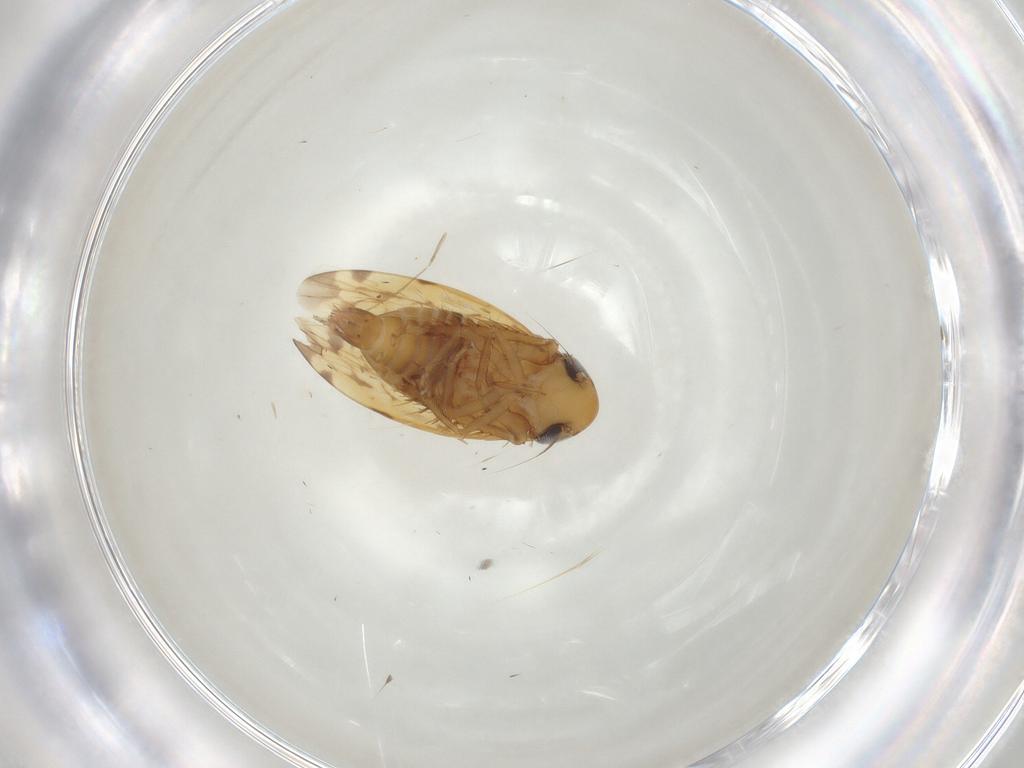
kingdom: Animalia
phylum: Arthropoda
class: Insecta
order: Hemiptera
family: Cicadellidae
